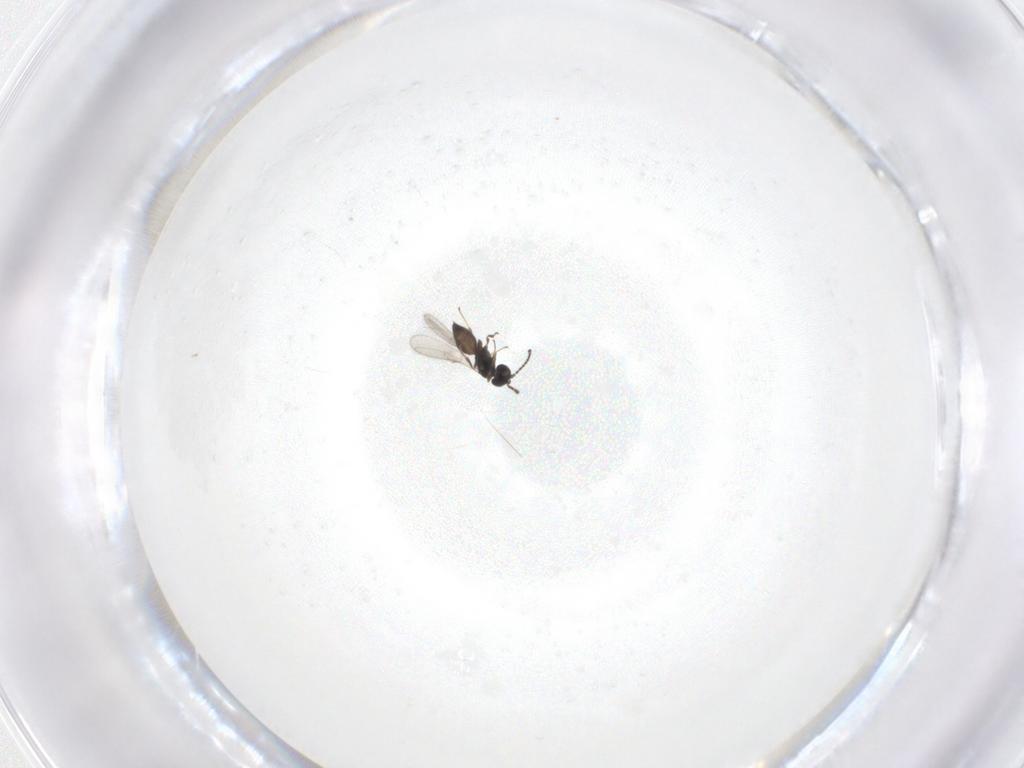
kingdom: Animalia
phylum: Arthropoda
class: Insecta
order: Hymenoptera
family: Scelionidae
